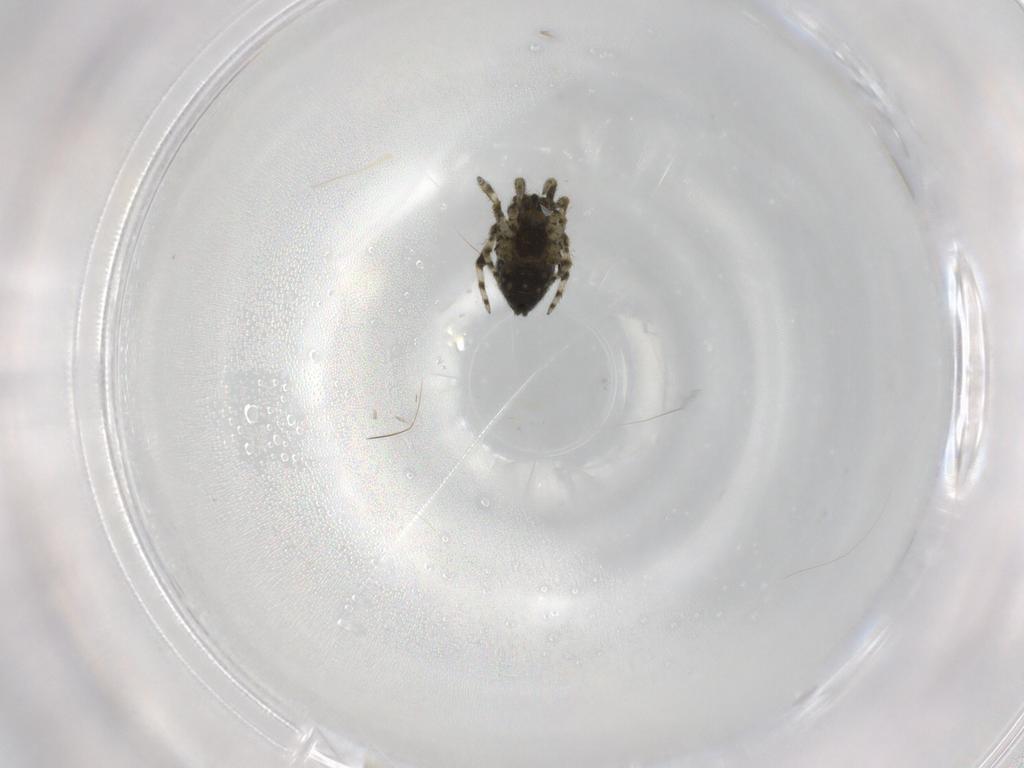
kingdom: Animalia
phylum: Arthropoda
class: Arachnida
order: Araneae
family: Theridiidae
